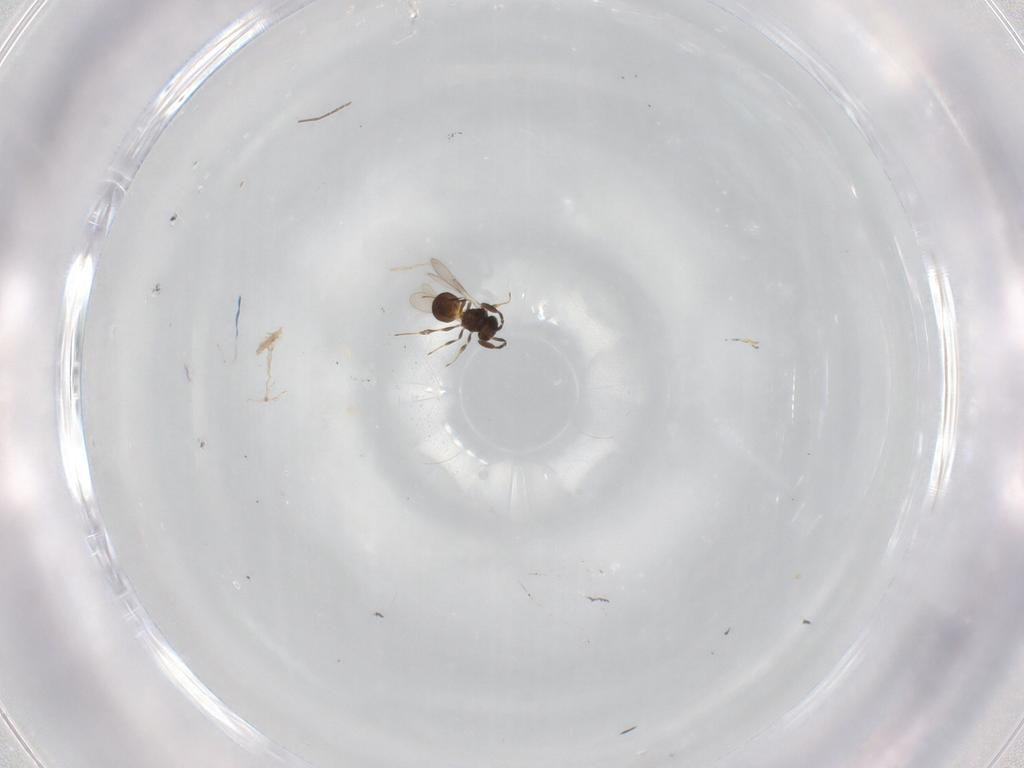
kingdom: Animalia
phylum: Arthropoda
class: Insecta
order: Hymenoptera
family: Scelionidae
